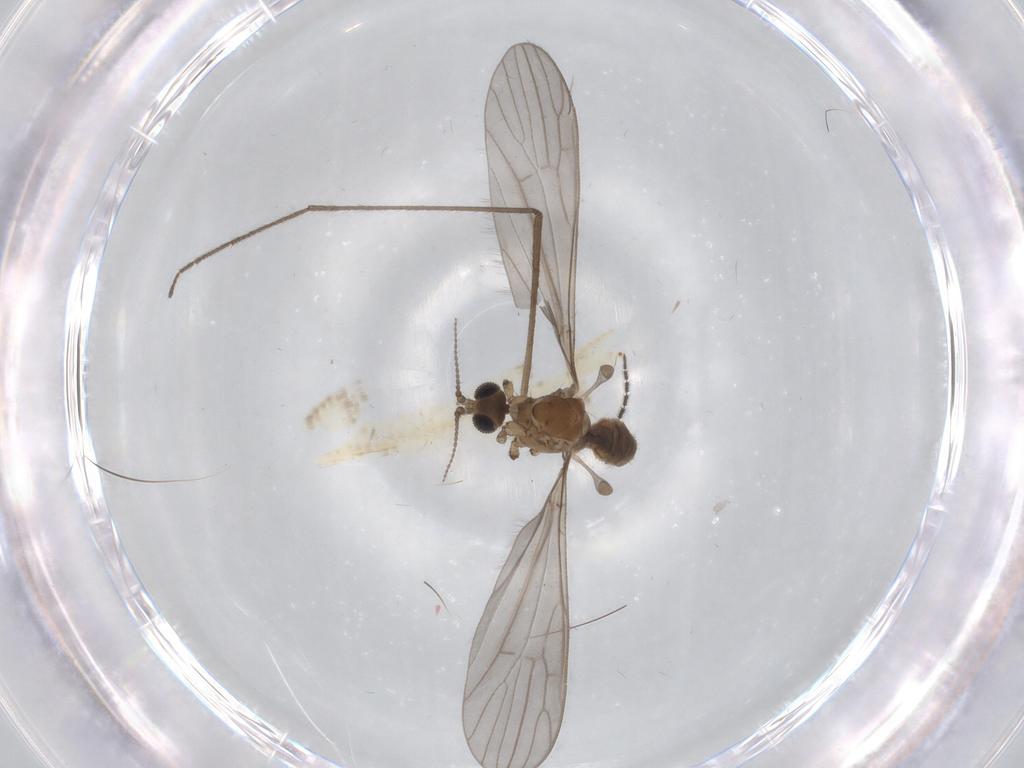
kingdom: Animalia
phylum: Arthropoda
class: Insecta
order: Diptera
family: Limoniidae
